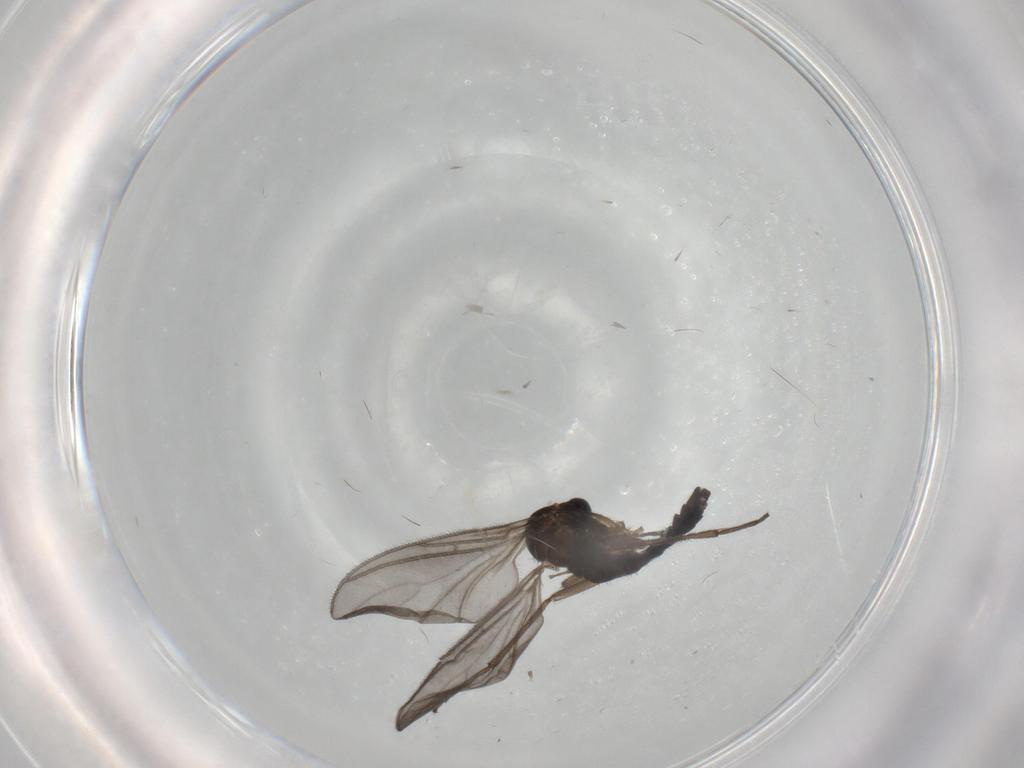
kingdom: Animalia
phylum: Arthropoda
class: Insecta
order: Diptera
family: Sciaridae
